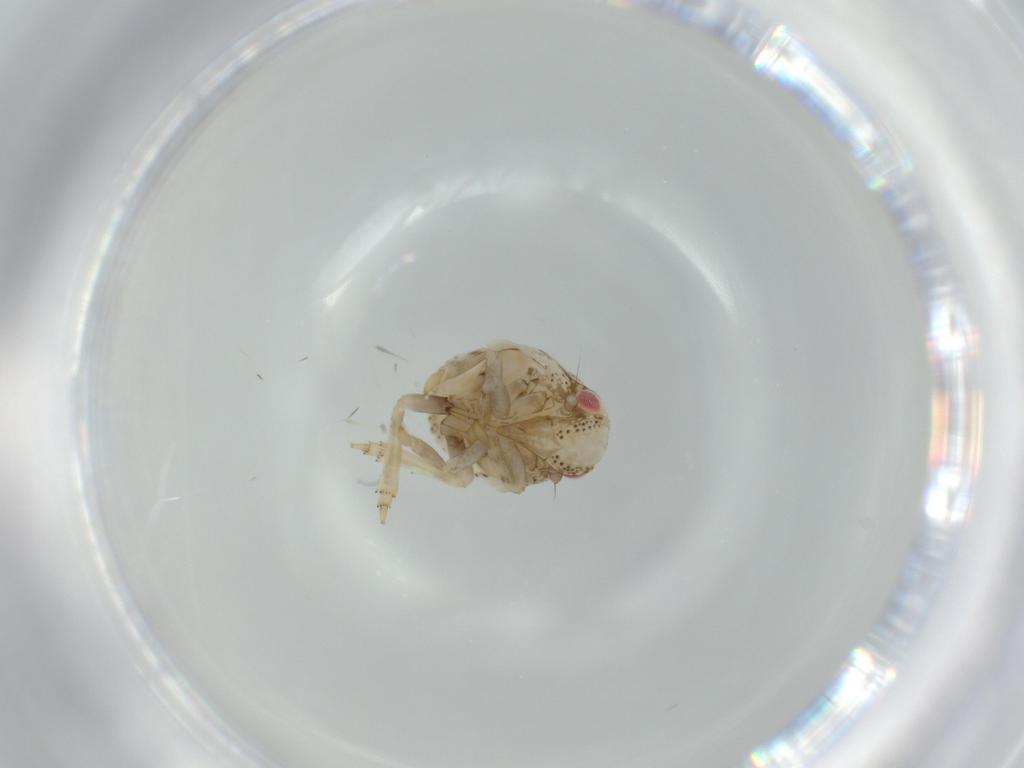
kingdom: Animalia
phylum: Arthropoda
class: Insecta
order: Hemiptera
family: Acanaloniidae
